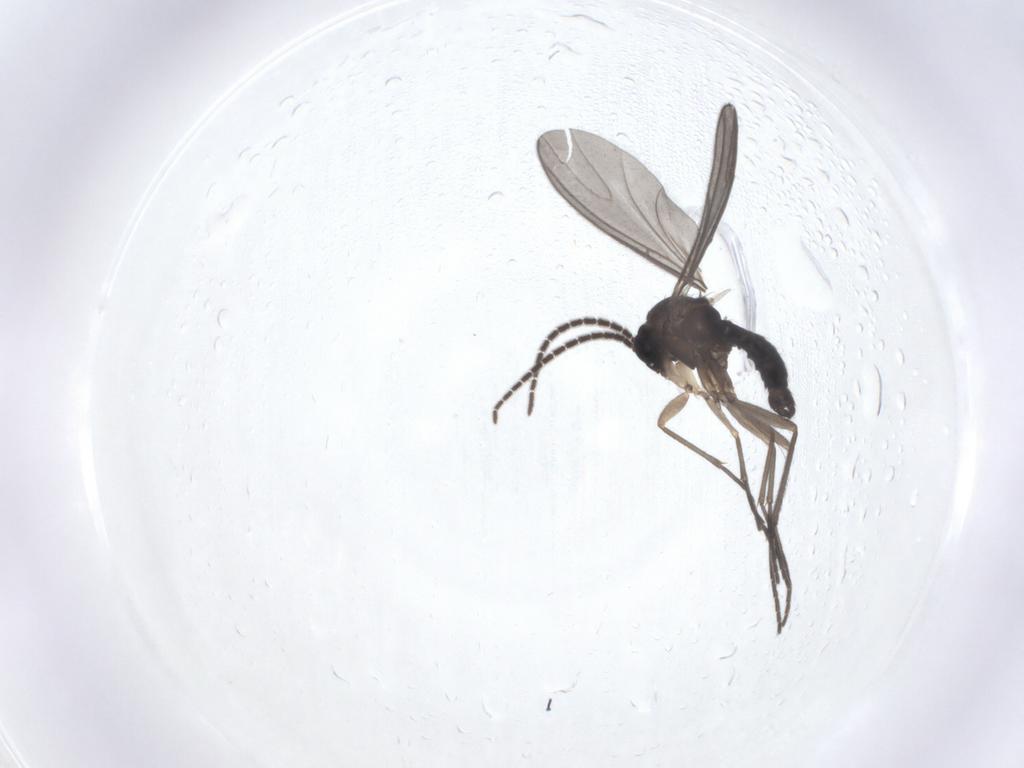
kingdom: Animalia
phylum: Arthropoda
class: Insecta
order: Diptera
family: Sciaridae
